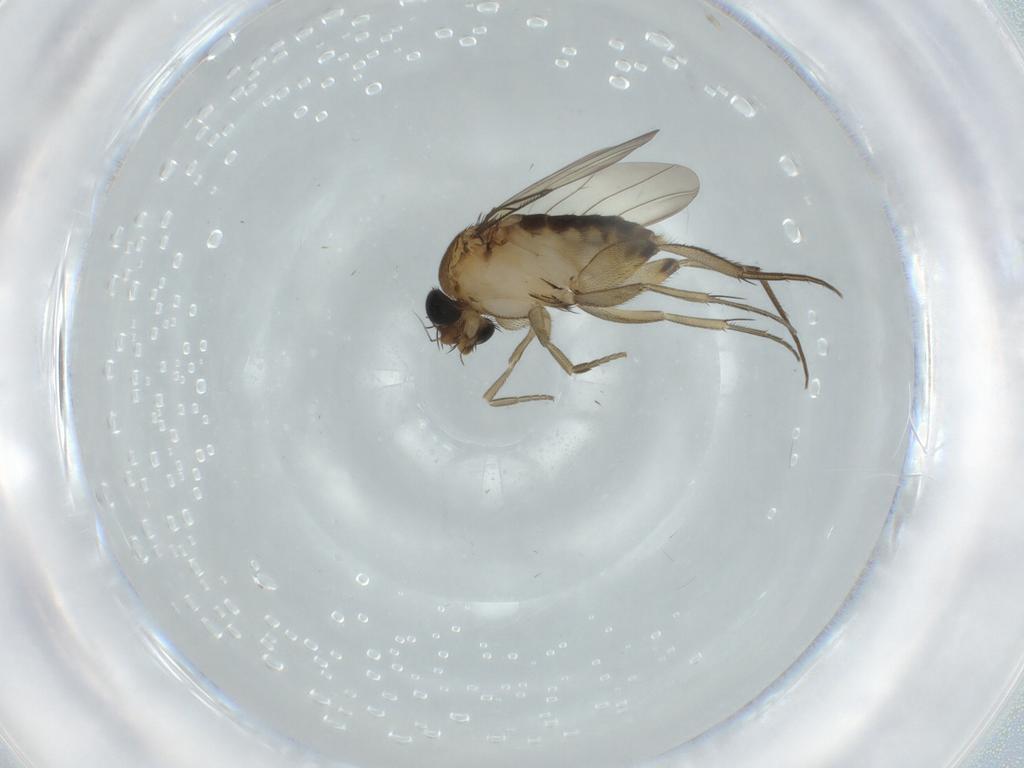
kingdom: Animalia
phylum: Arthropoda
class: Insecta
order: Diptera
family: Phoridae
